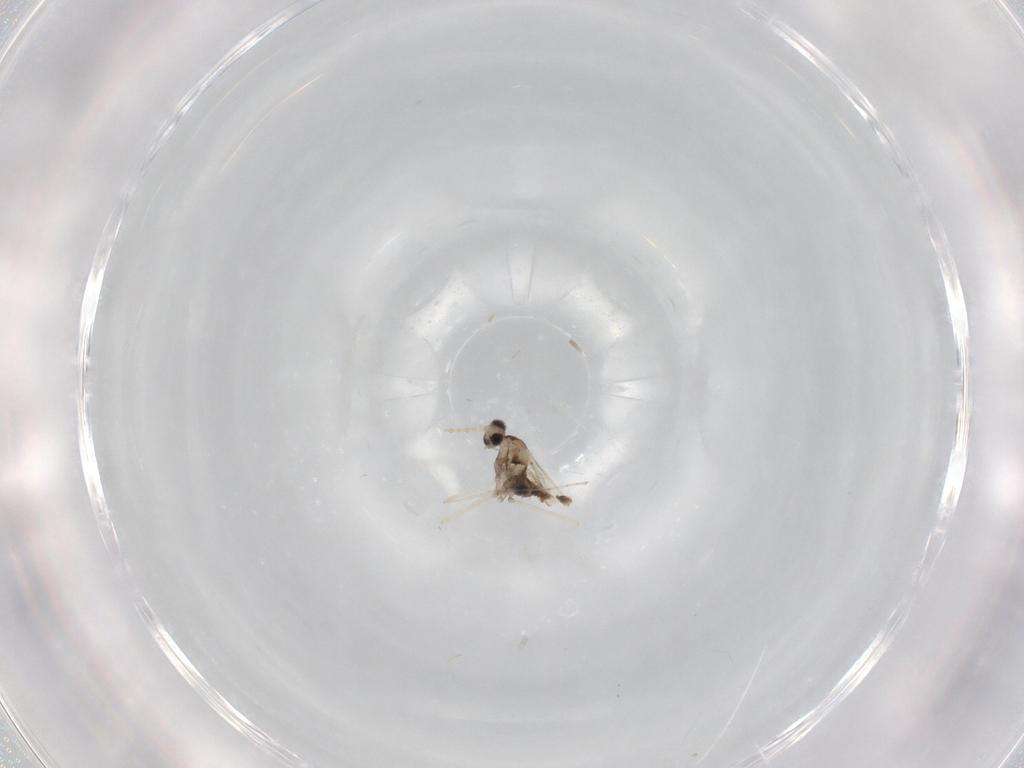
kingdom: Animalia
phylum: Arthropoda
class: Insecta
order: Diptera
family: Cecidomyiidae
